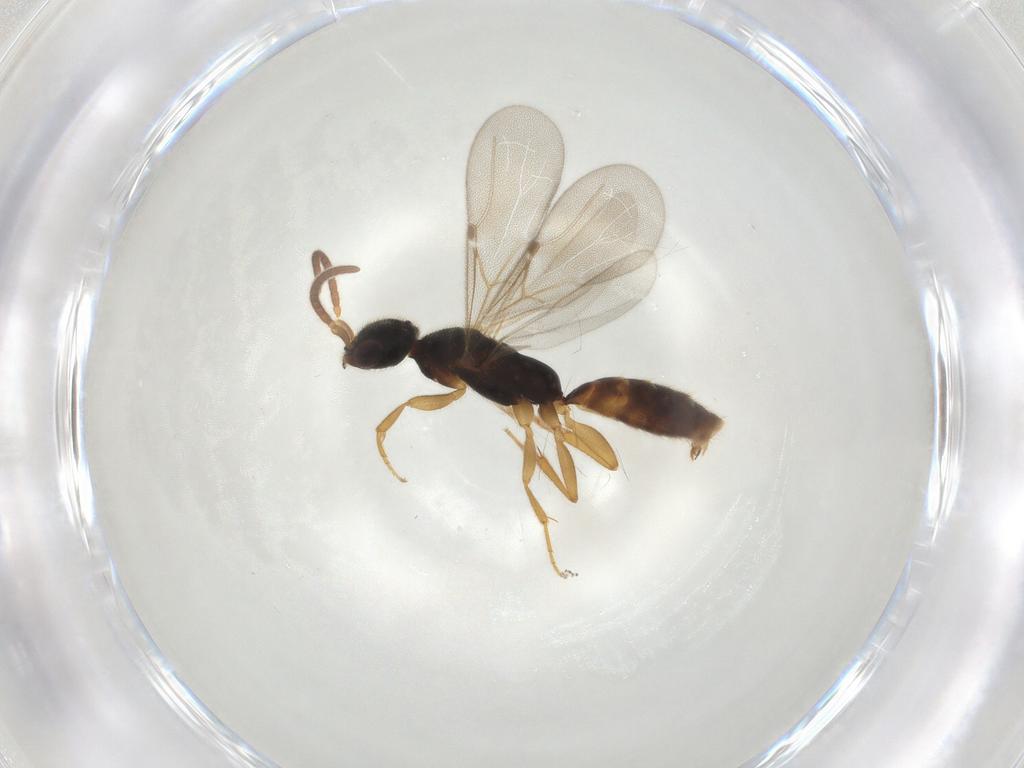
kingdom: Animalia
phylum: Arthropoda
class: Insecta
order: Hymenoptera
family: Bethylidae
